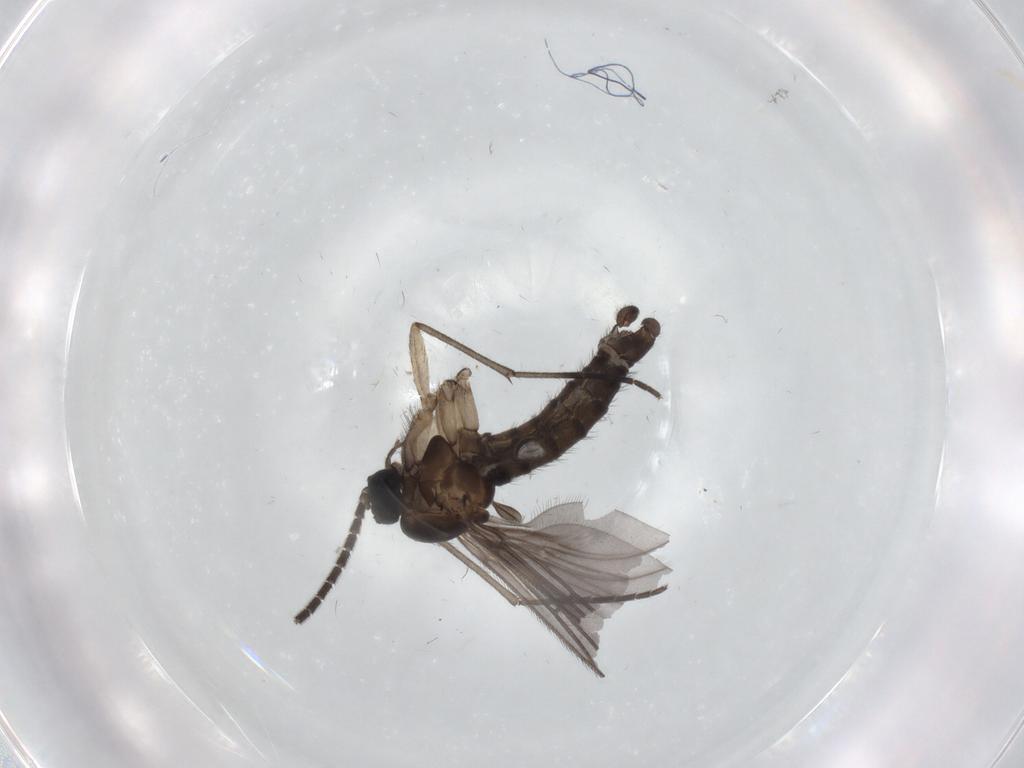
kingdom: Animalia
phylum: Arthropoda
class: Insecta
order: Diptera
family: Sciaridae
